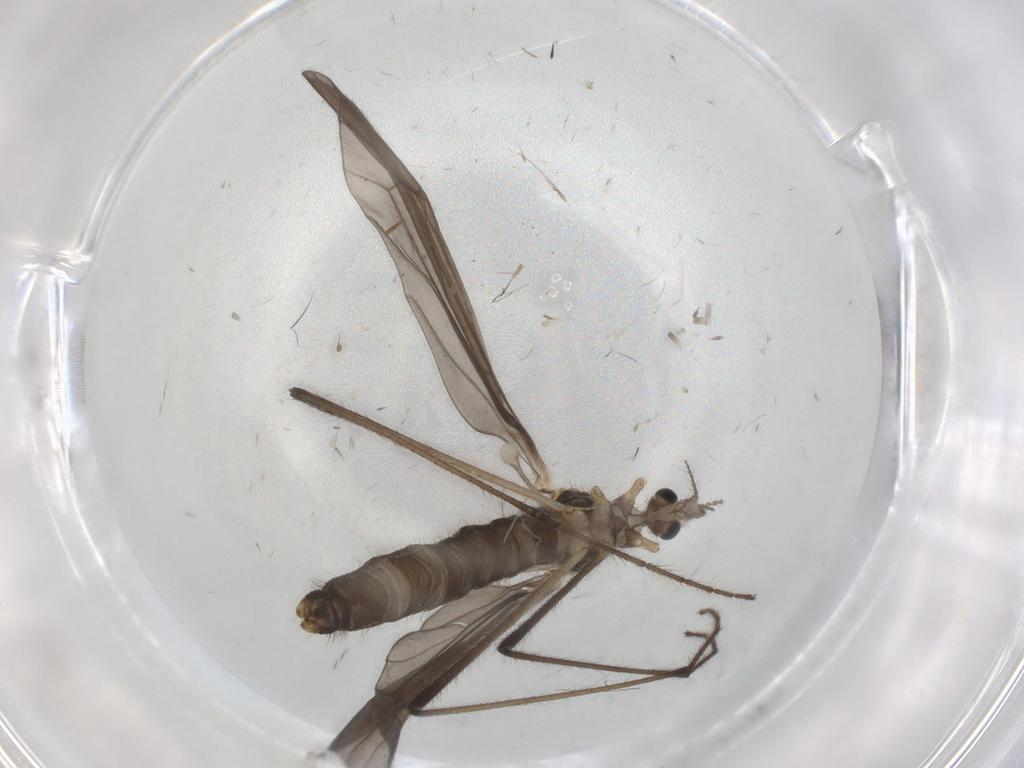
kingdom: Animalia
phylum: Arthropoda
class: Insecta
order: Diptera
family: Limoniidae
